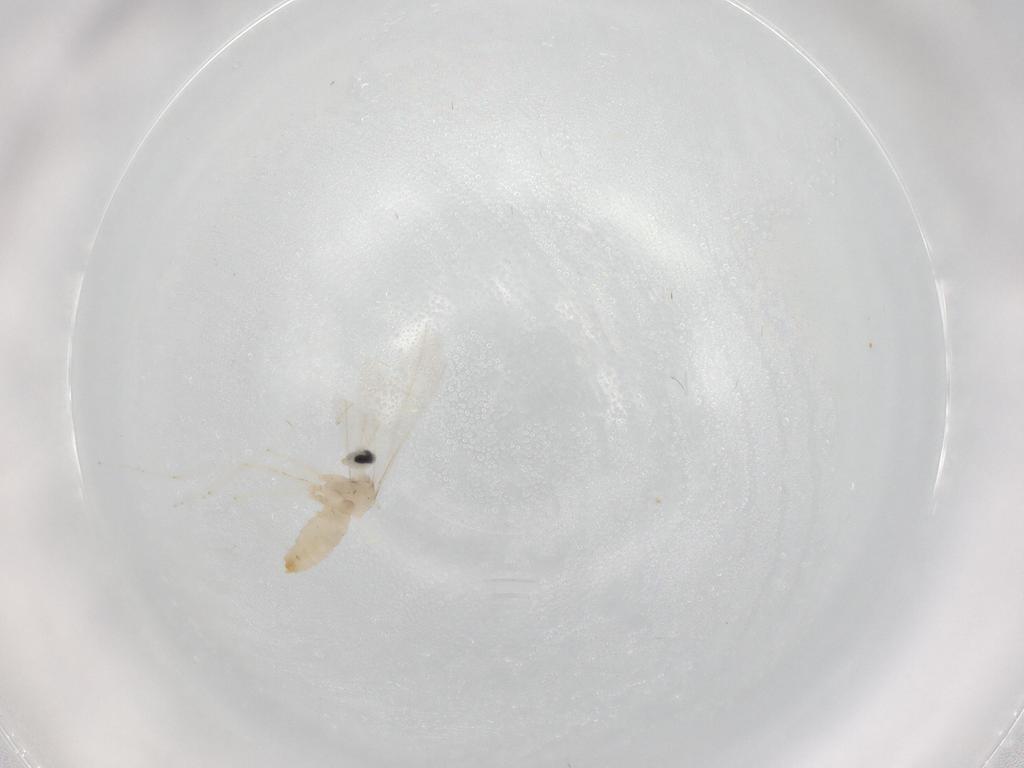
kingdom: Animalia
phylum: Arthropoda
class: Insecta
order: Diptera
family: Cecidomyiidae
